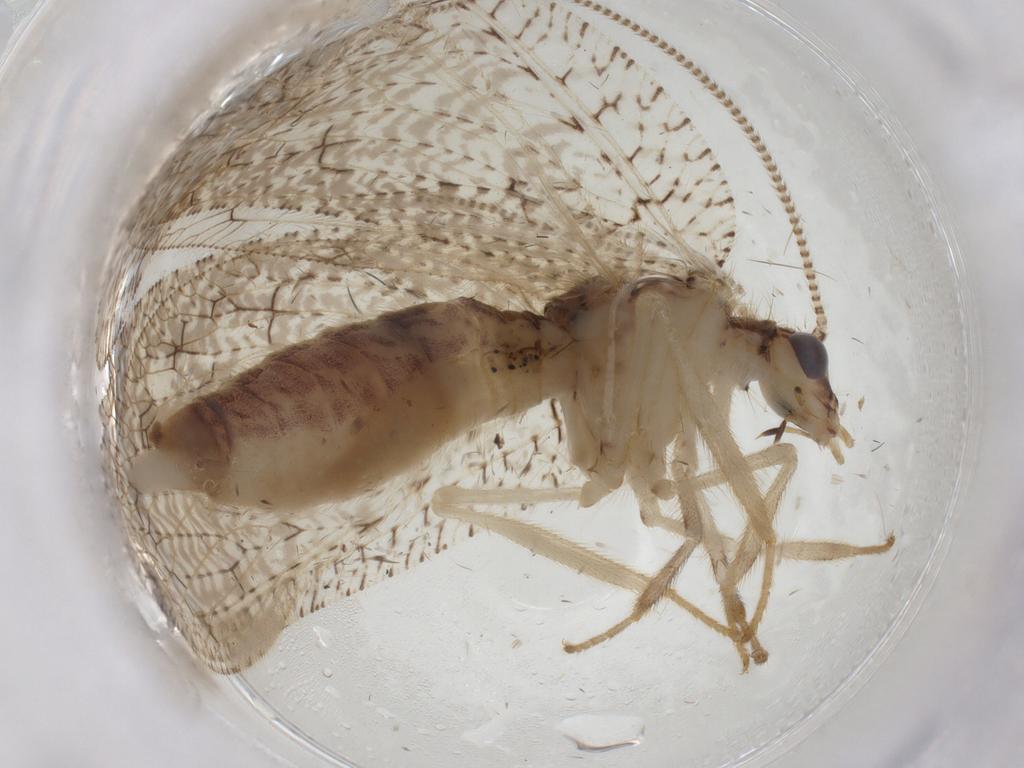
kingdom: Animalia
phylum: Arthropoda
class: Insecta
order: Neuroptera
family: Hemerobiidae
